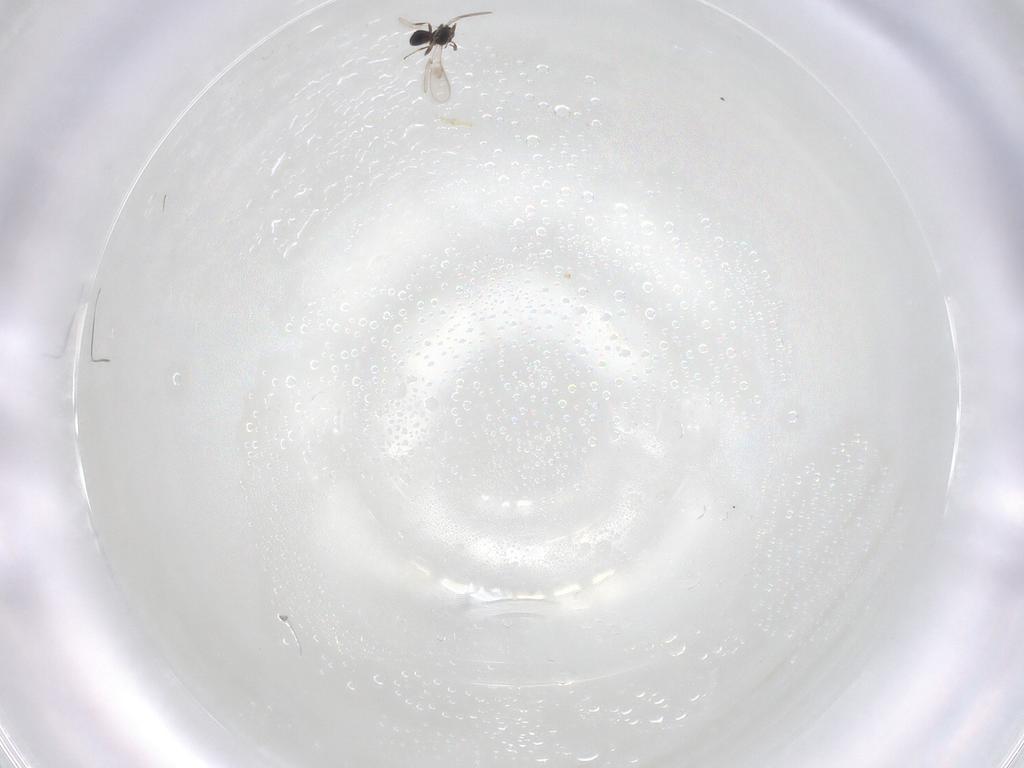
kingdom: Animalia
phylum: Arthropoda
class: Insecta
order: Hymenoptera
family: Scelionidae
